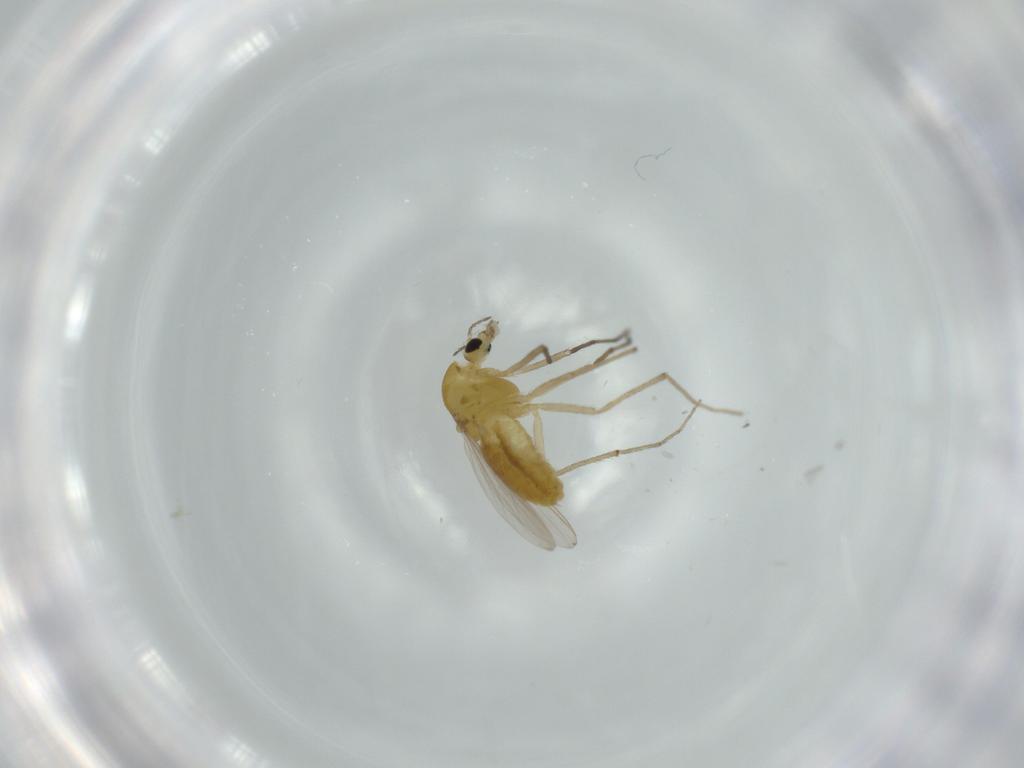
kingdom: Animalia
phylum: Arthropoda
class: Insecta
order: Diptera
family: Chironomidae
